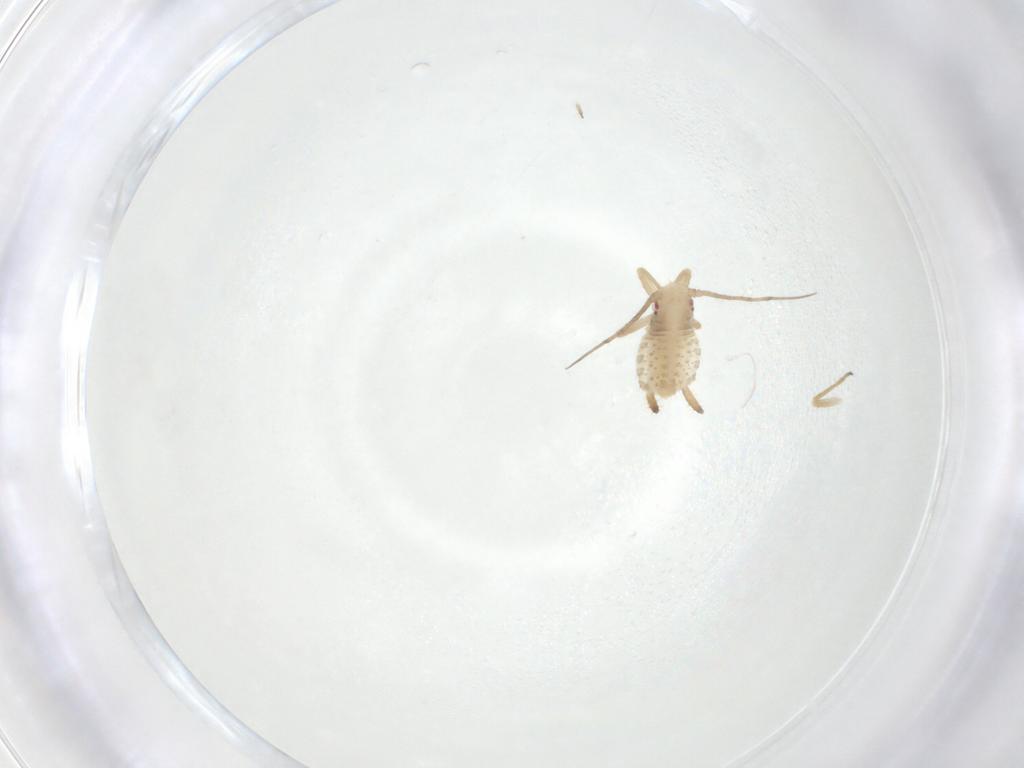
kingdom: Animalia
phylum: Arthropoda
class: Insecta
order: Hemiptera
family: Aphididae
